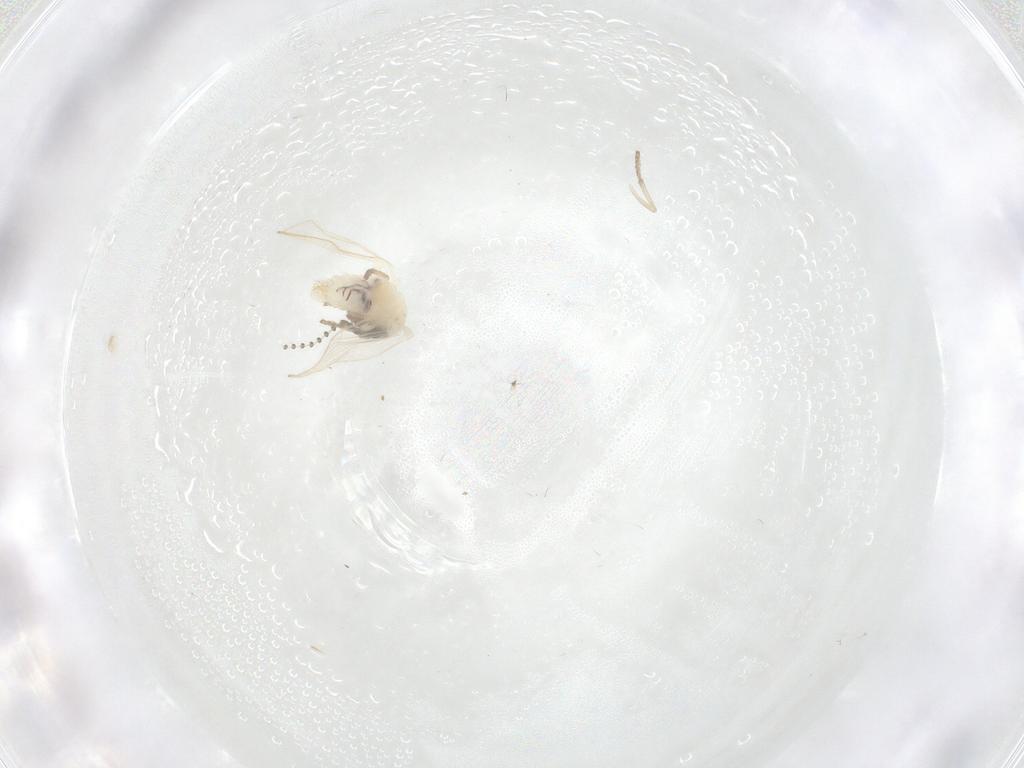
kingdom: Animalia
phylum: Arthropoda
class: Insecta
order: Diptera
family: Psychodidae
